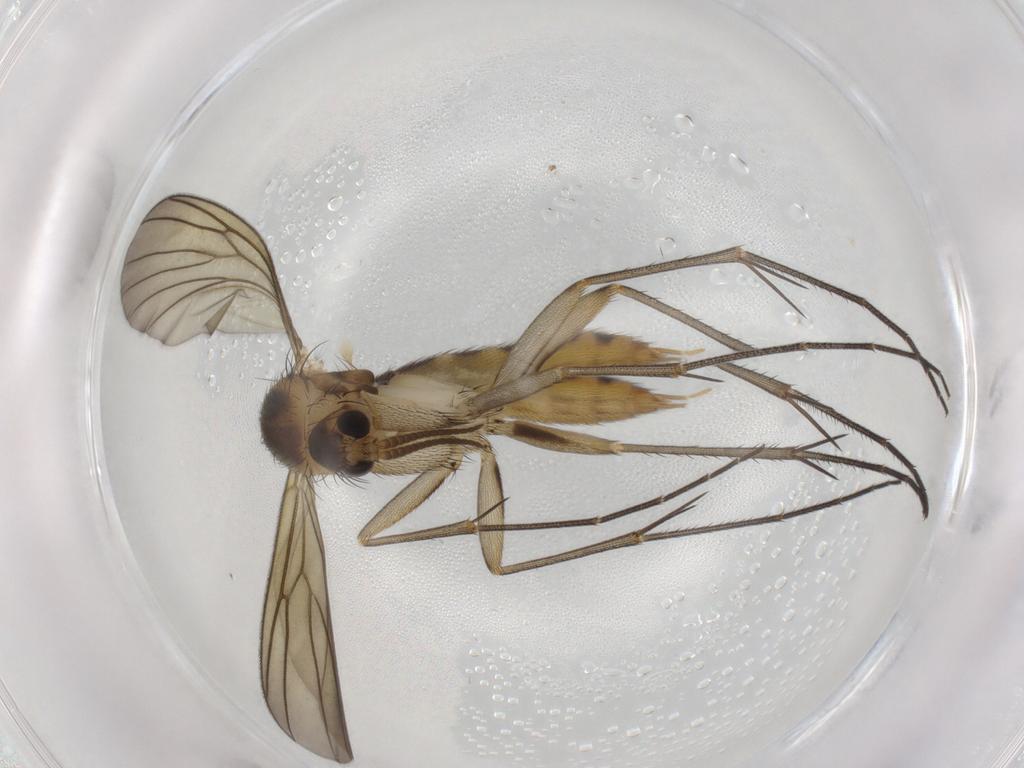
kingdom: Animalia
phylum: Arthropoda
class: Insecta
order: Diptera
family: Mycetophilidae
